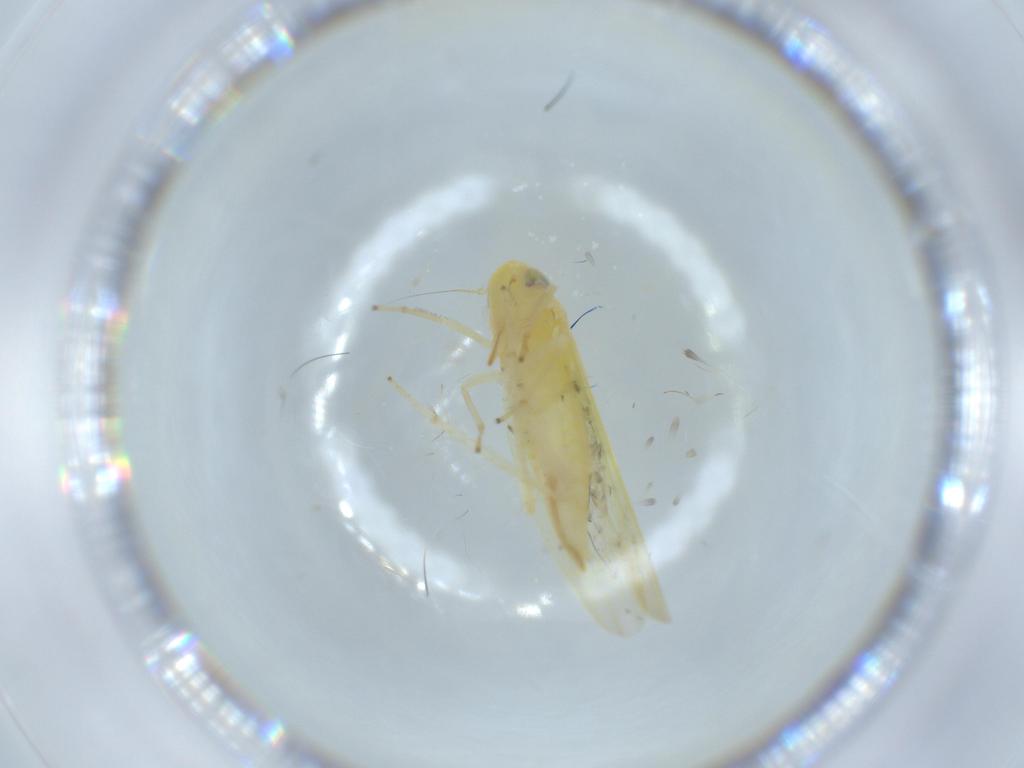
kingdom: Animalia
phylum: Arthropoda
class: Insecta
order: Hemiptera
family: Cicadellidae
